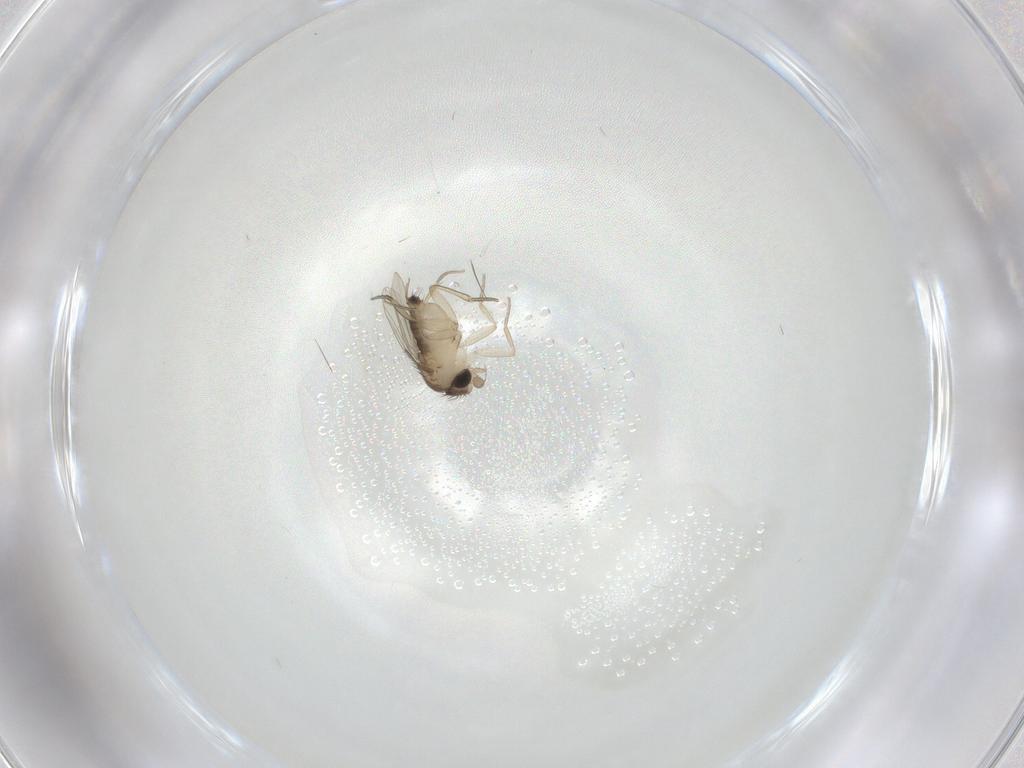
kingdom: Animalia
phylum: Arthropoda
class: Insecta
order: Diptera
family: Phoridae
